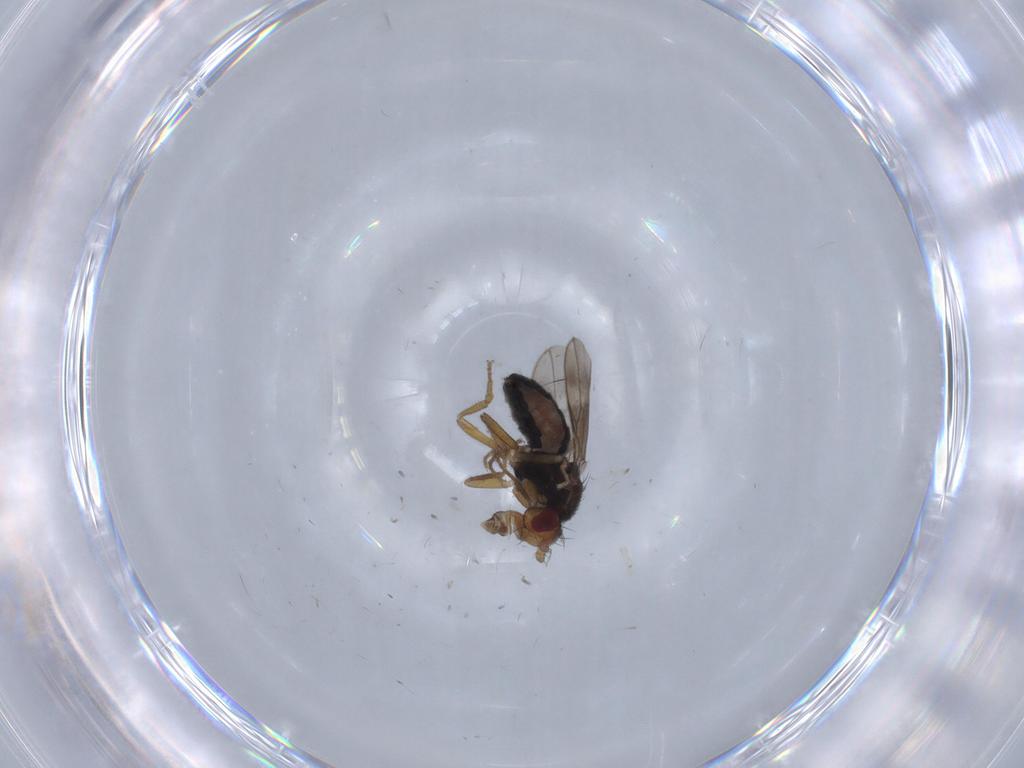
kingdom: Animalia
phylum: Arthropoda
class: Insecta
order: Diptera
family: Sphaeroceridae
